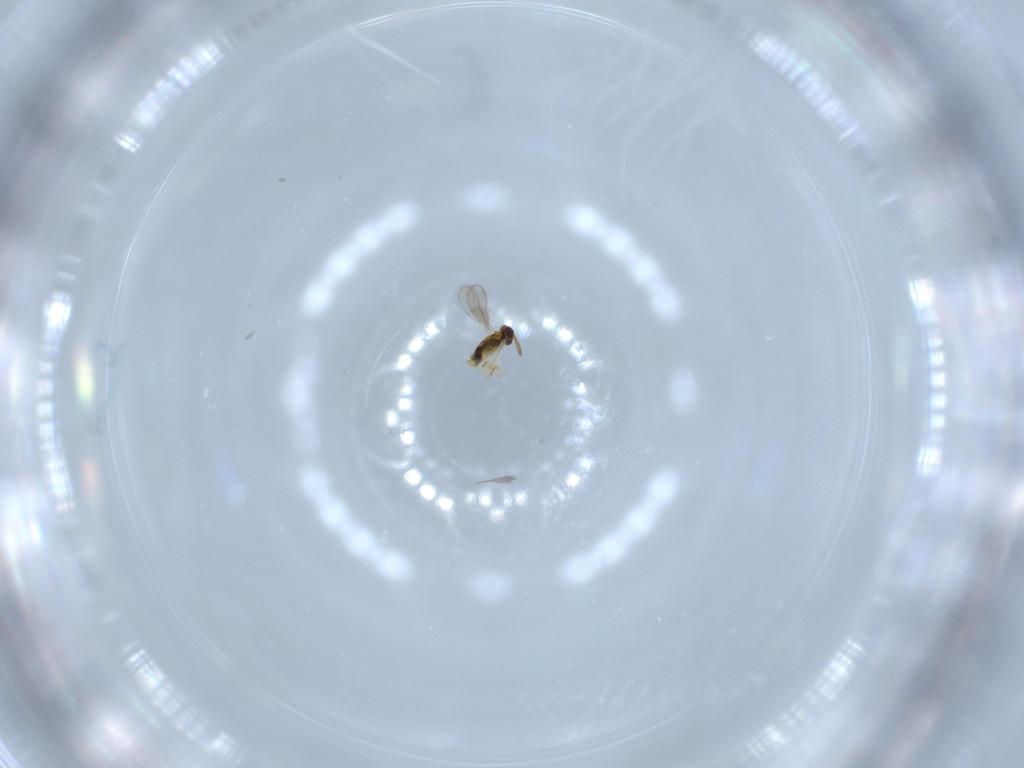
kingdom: Animalia
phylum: Arthropoda
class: Insecta
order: Hymenoptera
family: Aphelinidae
